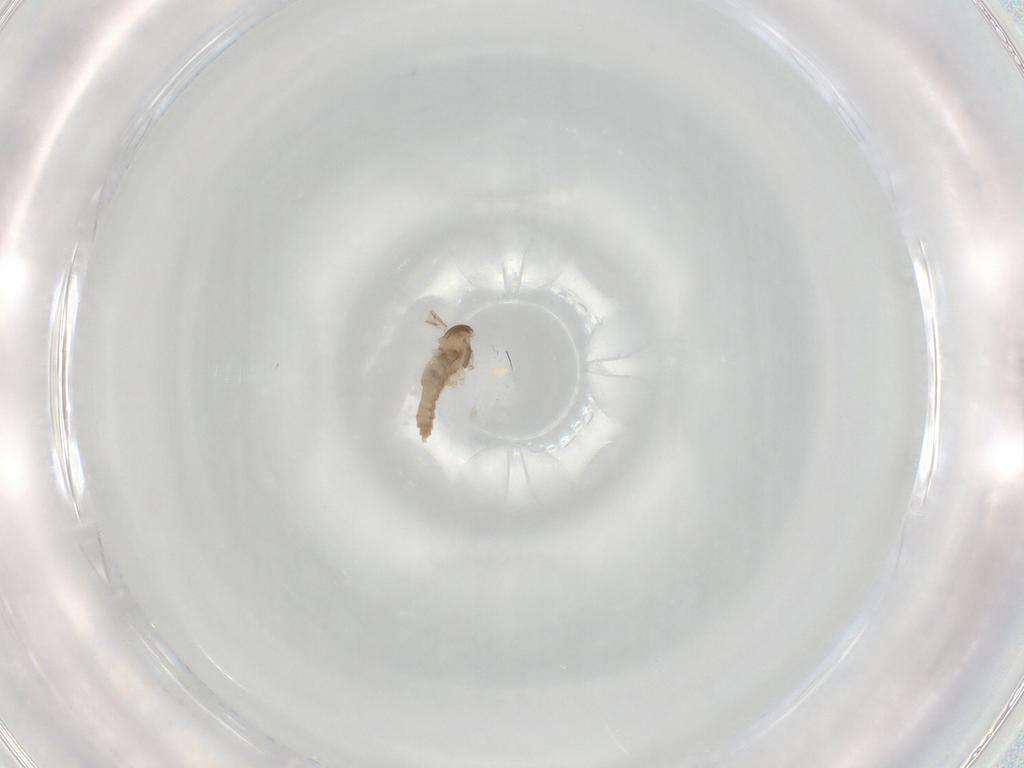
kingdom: Animalia
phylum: Arthropoda
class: Insecta
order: Diptera
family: Cecidomyiidae
